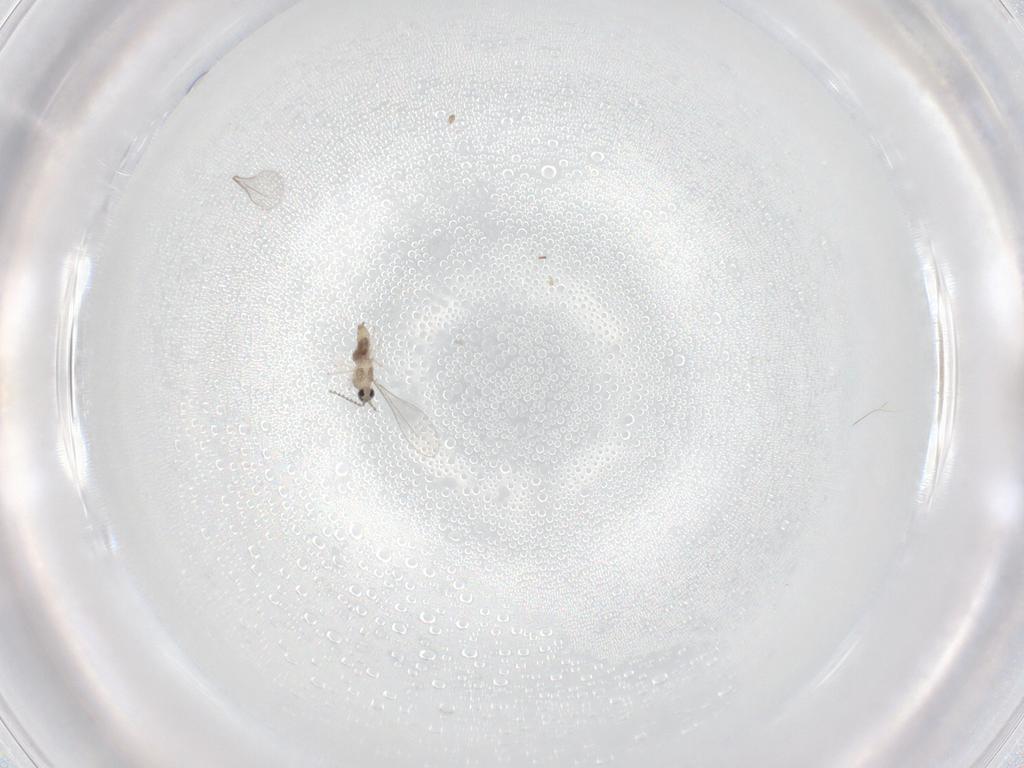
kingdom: Animalia
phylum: Arthropoda
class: Insecta
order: Diptera
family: Cecidomyiidae
